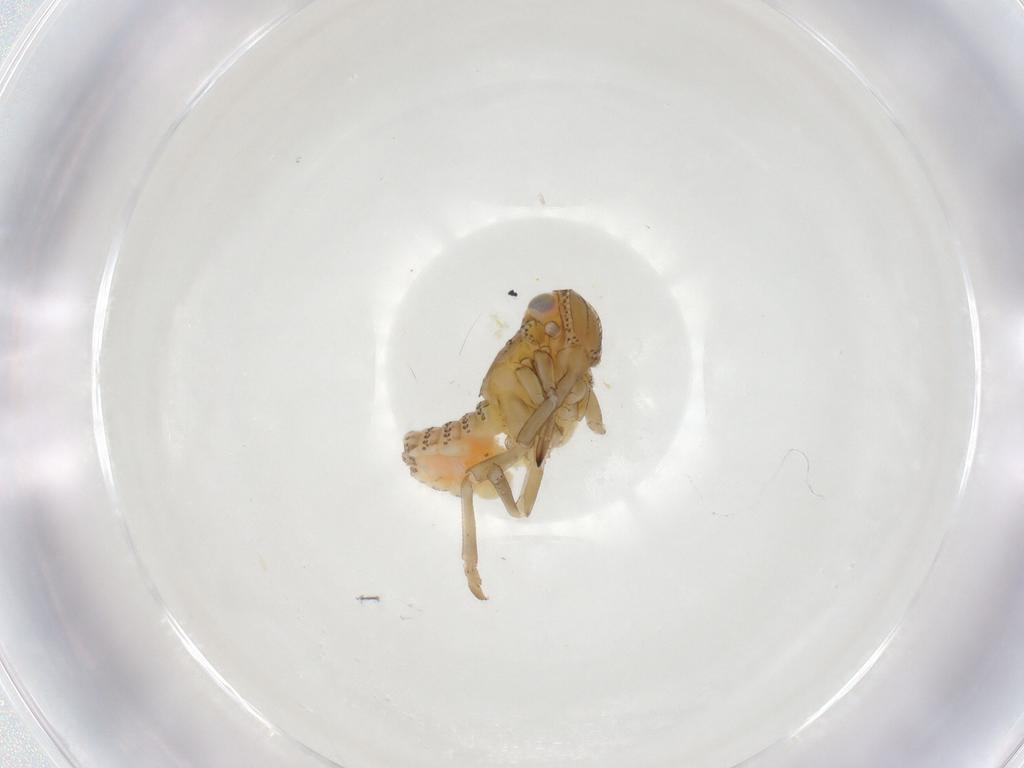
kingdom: Animalia
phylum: Arthropoda
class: Insecta
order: Hemiptera
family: Tropiduchidae
